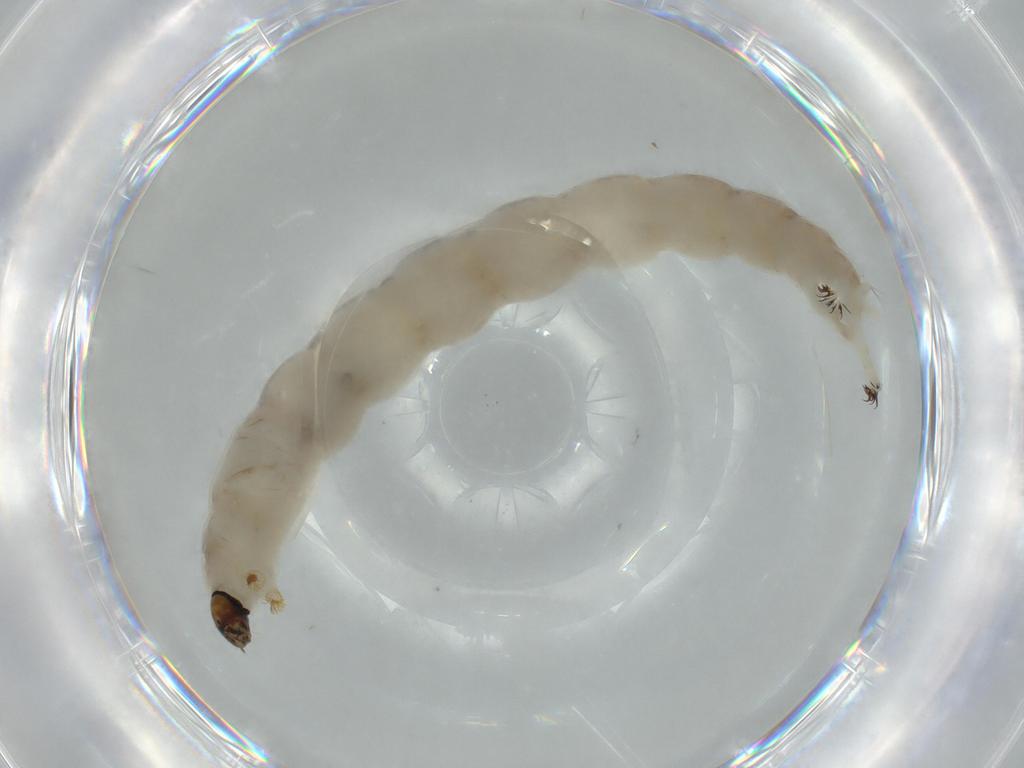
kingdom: Animalia
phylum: Arthropoda
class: Insecta
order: Diptera
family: Chironomidae
